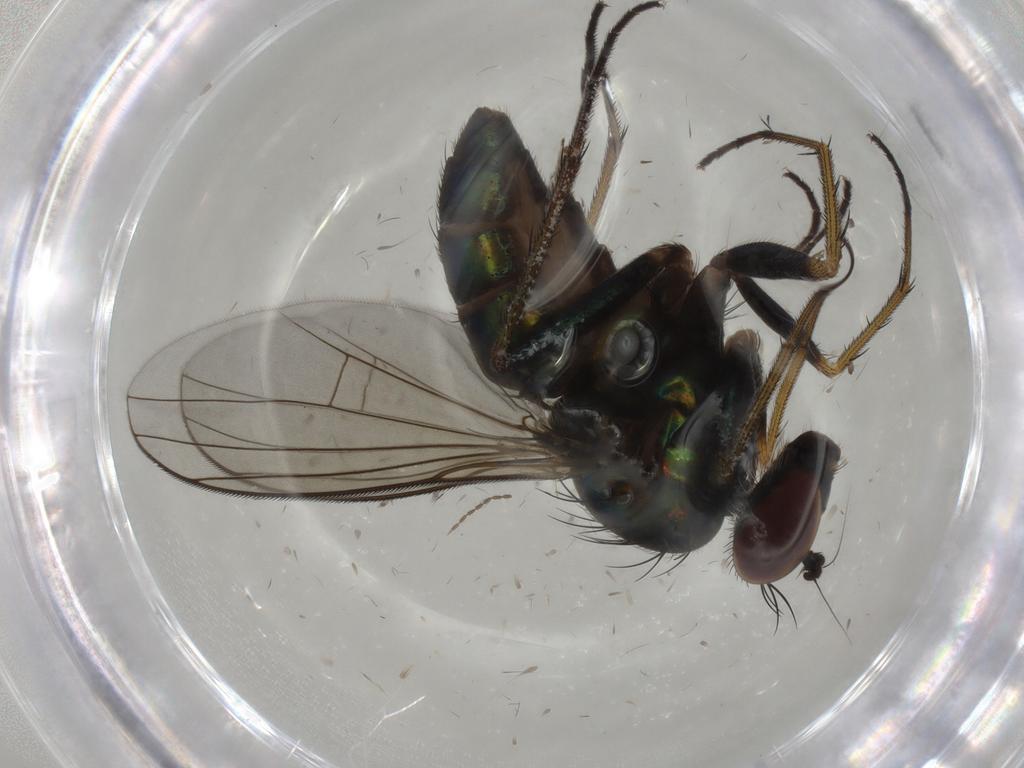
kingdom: Animalia
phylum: Arthropoda
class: Insecta
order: Diptera
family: Dolichopodidae
